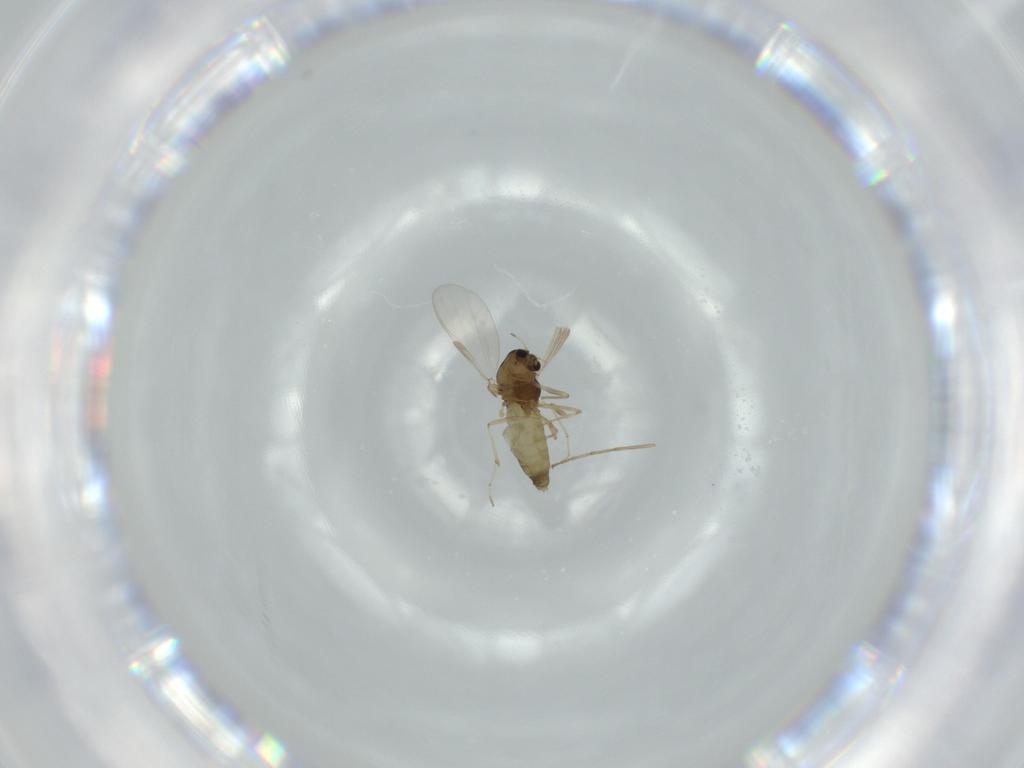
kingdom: Animalia
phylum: Arthropoda
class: Insecta
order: Diptera
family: Chironomidae
